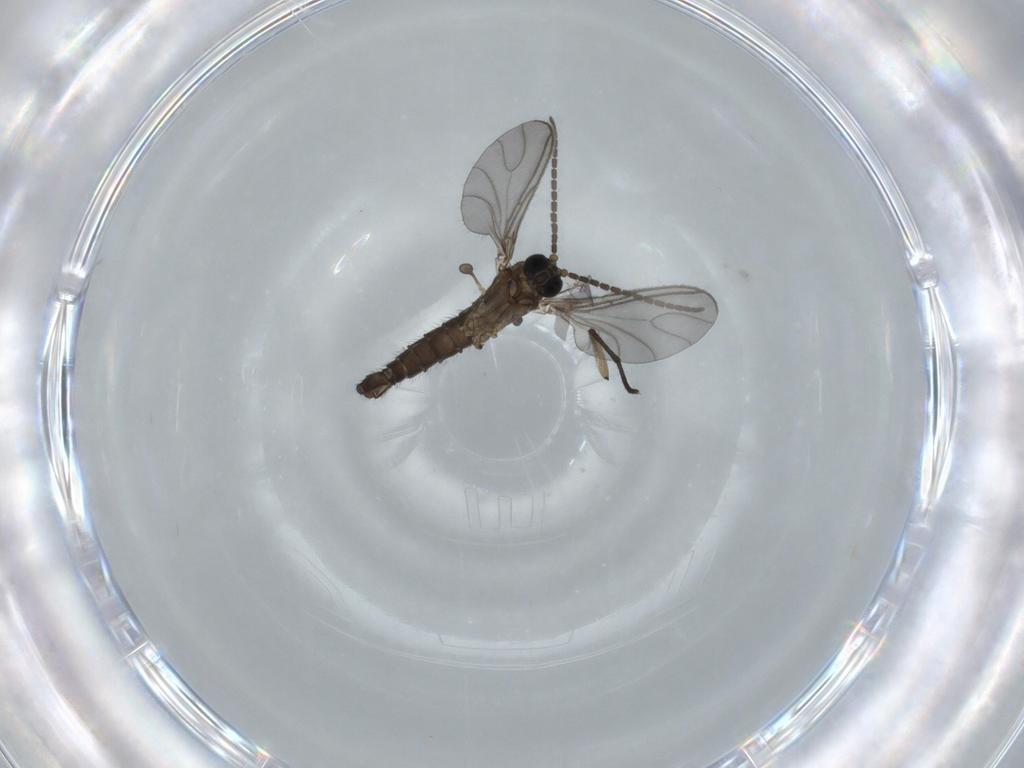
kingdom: Animalia
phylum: Arthropoda
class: Insecta
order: Diptera
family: Sciaridae
